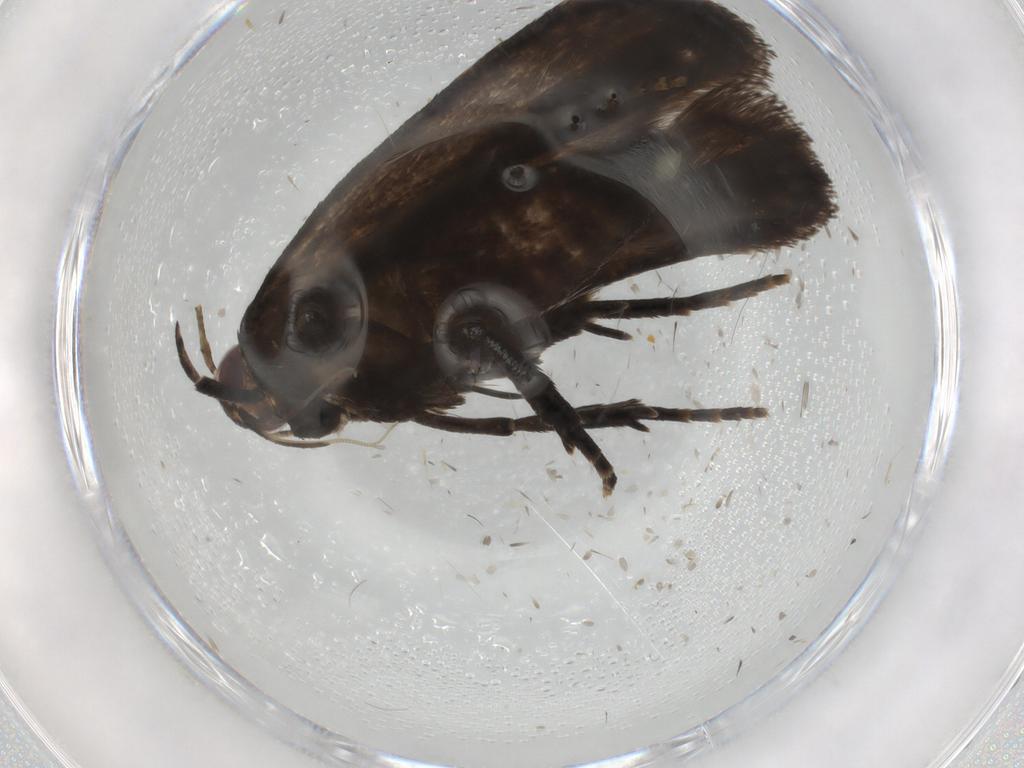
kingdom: Animalia
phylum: Arthropoda
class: Insecta
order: Lepidoptera
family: Gelechiidae
